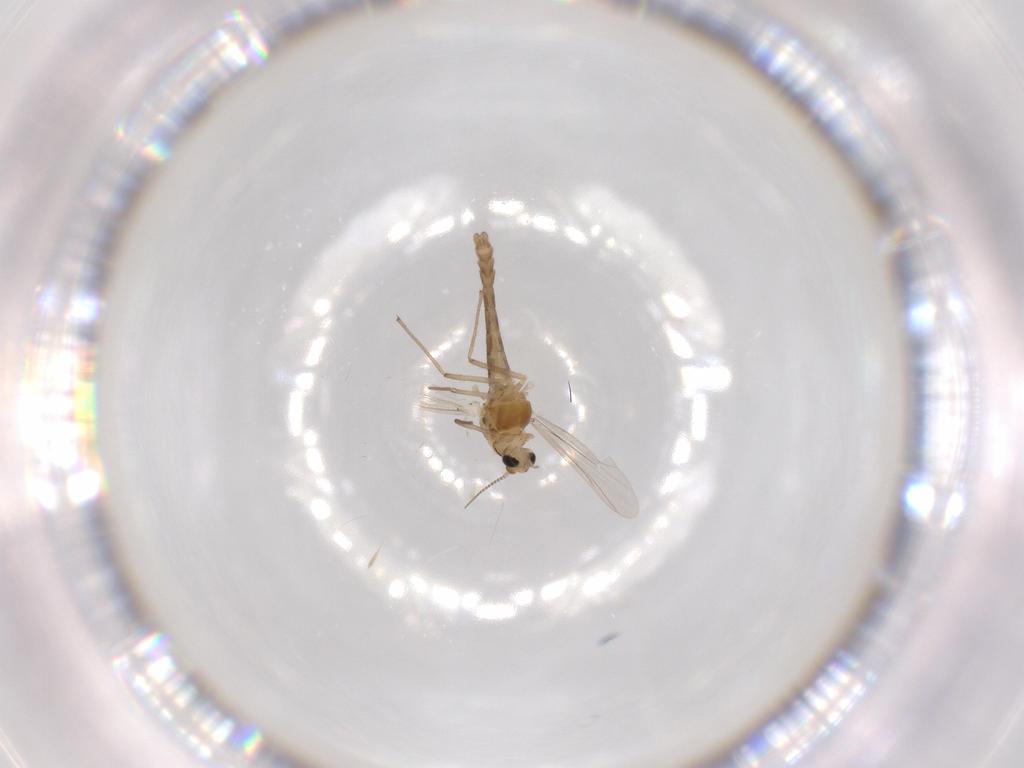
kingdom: Animalia
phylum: Arthropoda
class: Insecta
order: Diptera
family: Chironomidae
